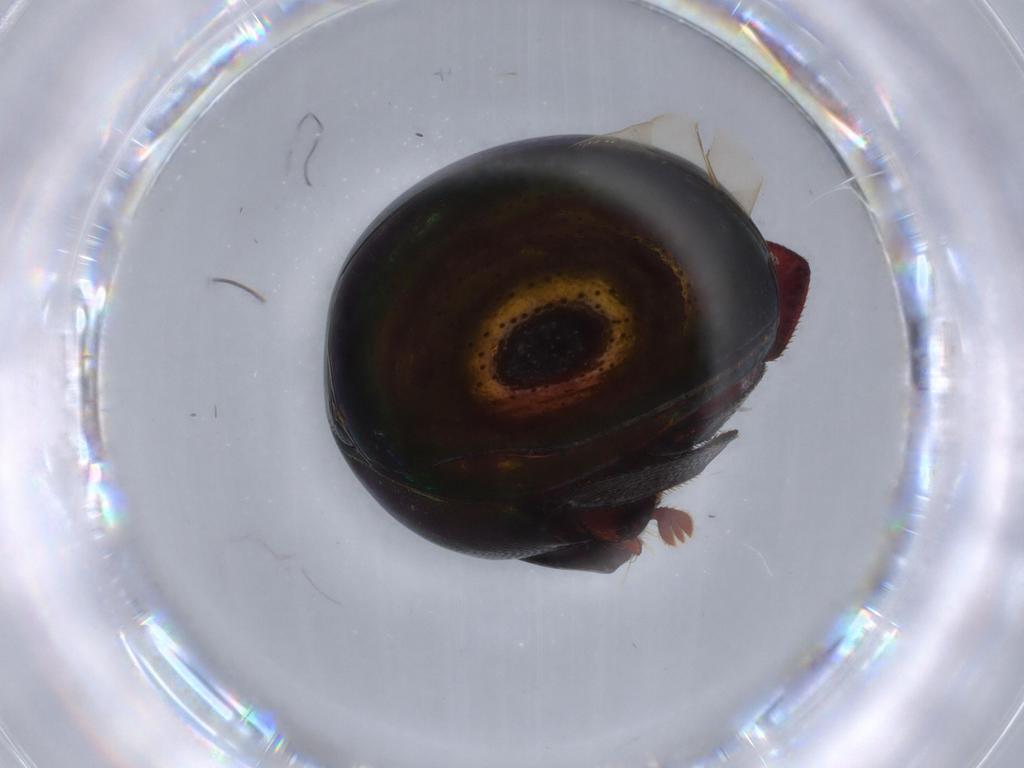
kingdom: Animalia
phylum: Arthropoda
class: Insecta
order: Coleoptera
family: Hybosoridae
